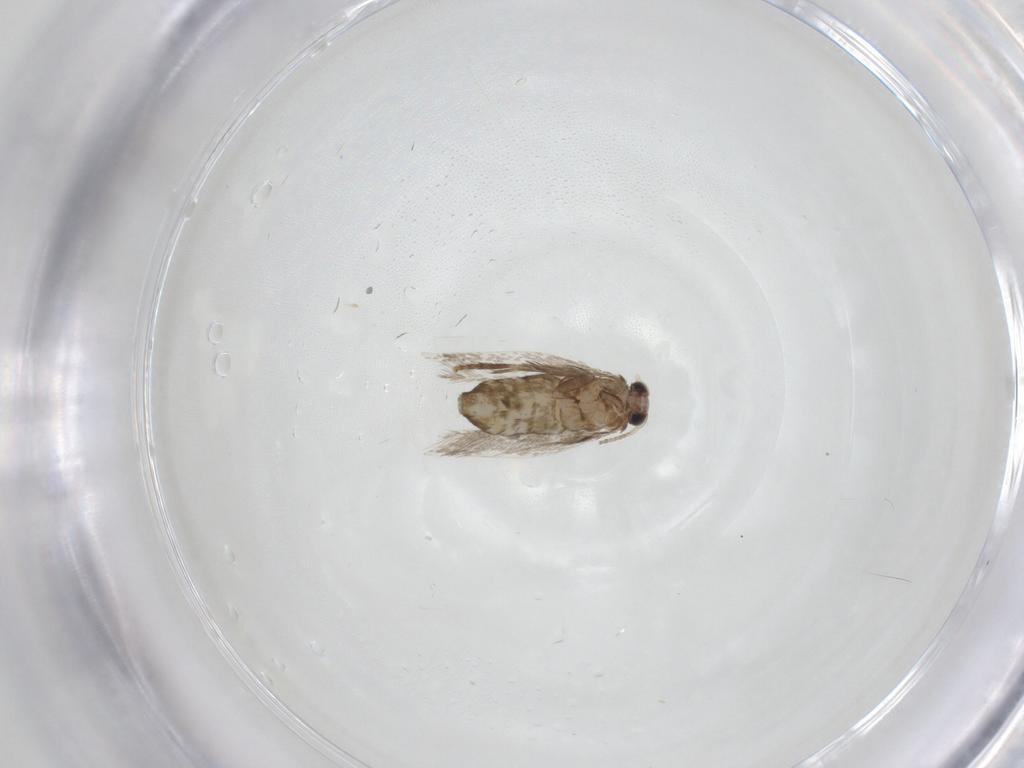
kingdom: Animalia
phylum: Arthropoda
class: Insecta
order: Lepidoptera
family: Nepticulidae
